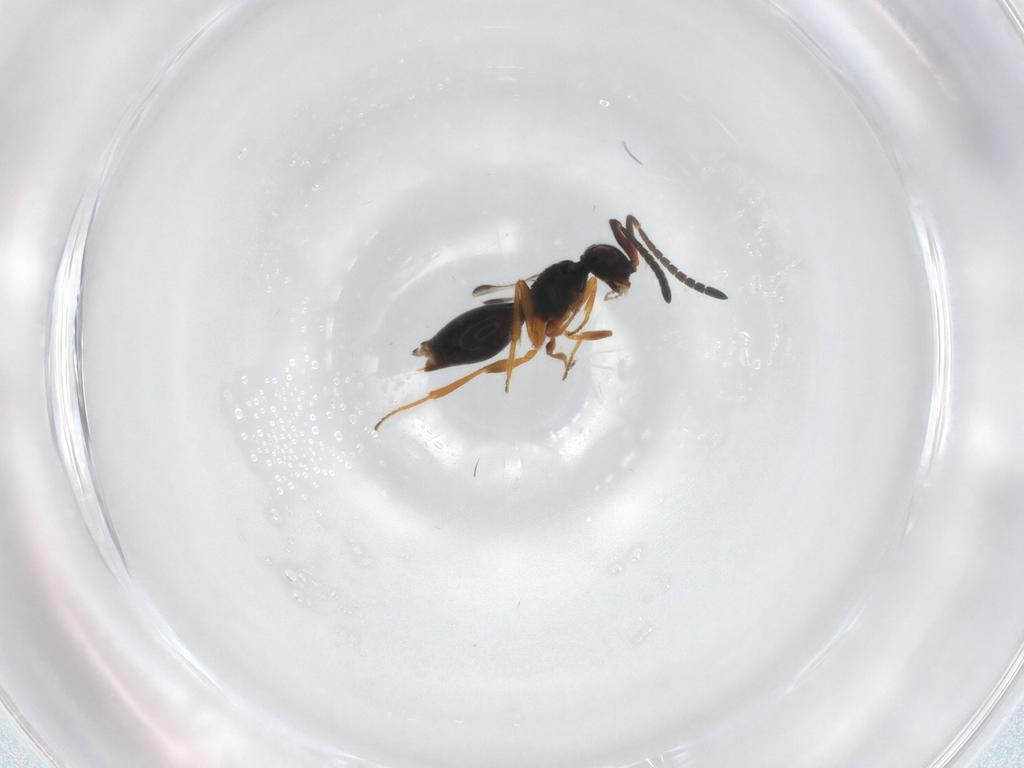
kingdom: Animalia
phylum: Arthropoda
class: Insecta
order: Hymenoptera
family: Megaspilidae
